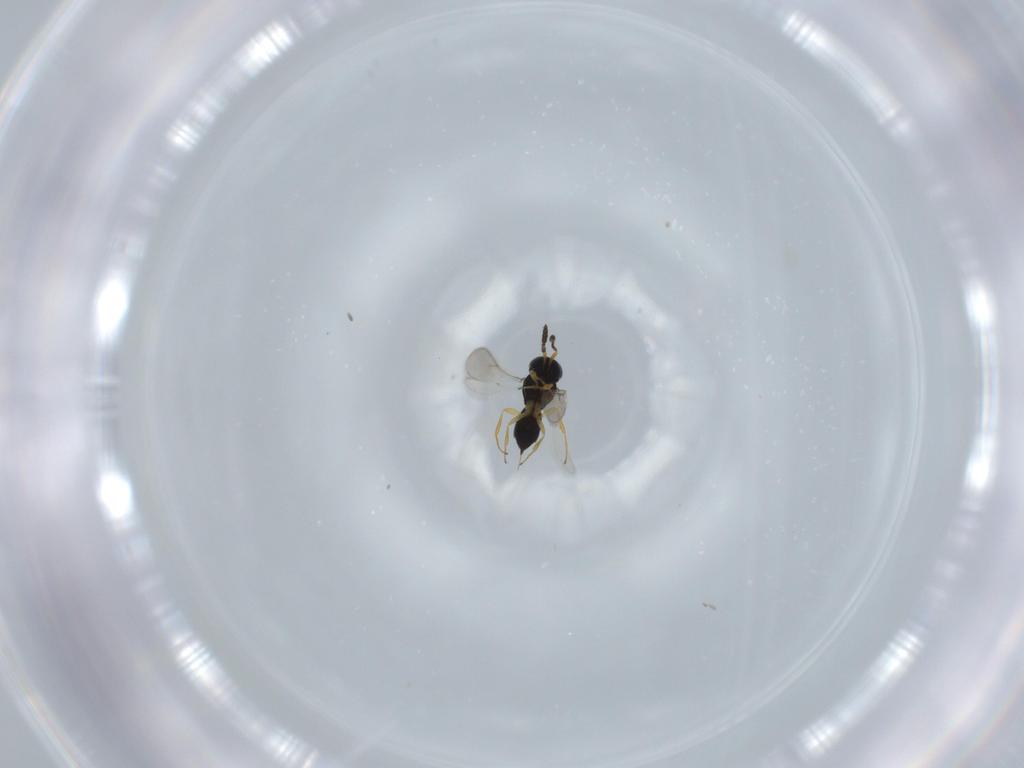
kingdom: Animalia
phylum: Arthropoda
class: Insecta
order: Hymenoptera
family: Scelionidae
